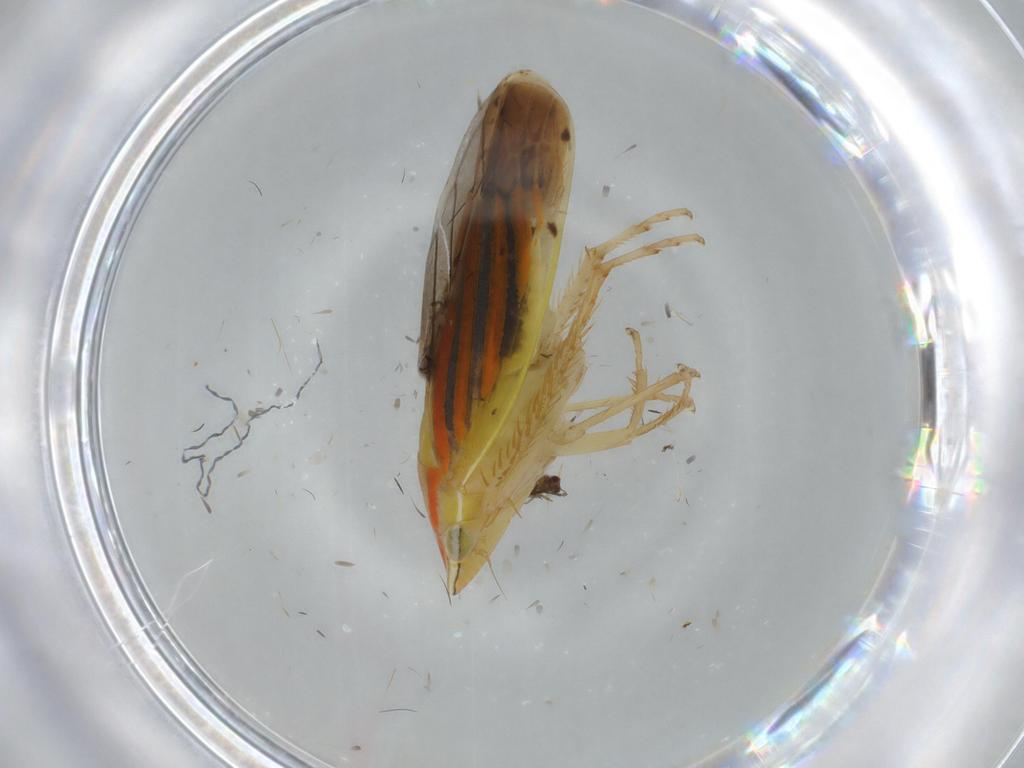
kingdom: Animalia
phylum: Arthropoda
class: Insecta
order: Hemiptera
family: Cicadellidae
